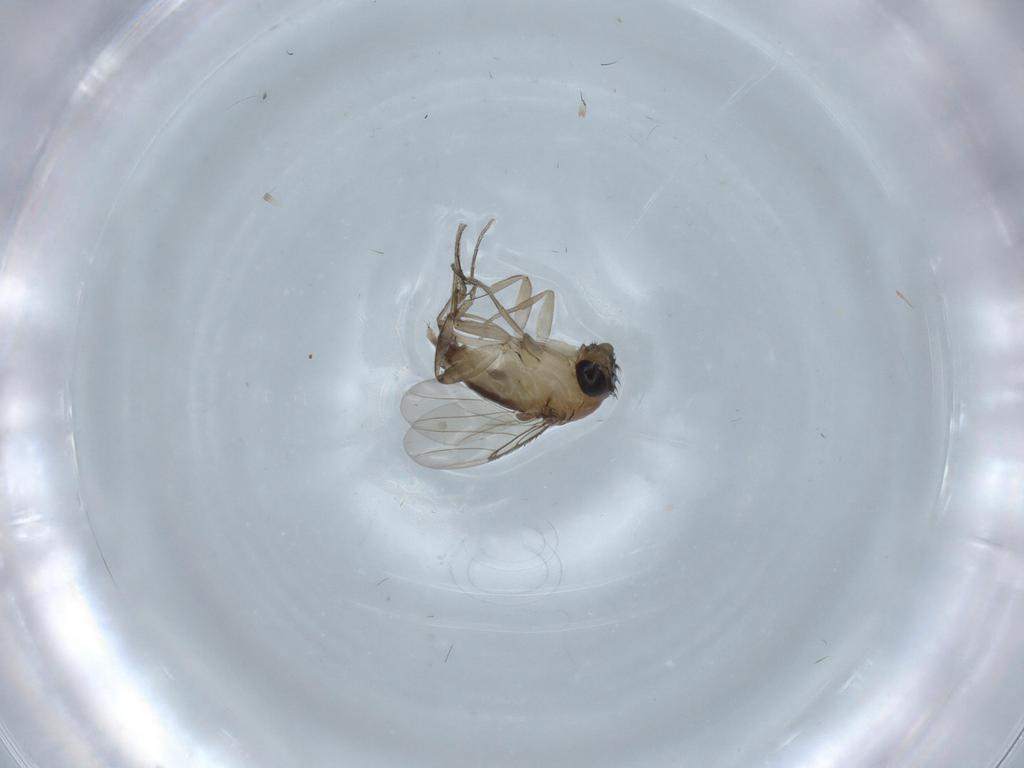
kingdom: Animalia
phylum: Arthropoda
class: Insecta
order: Diptera
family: Phoridae
